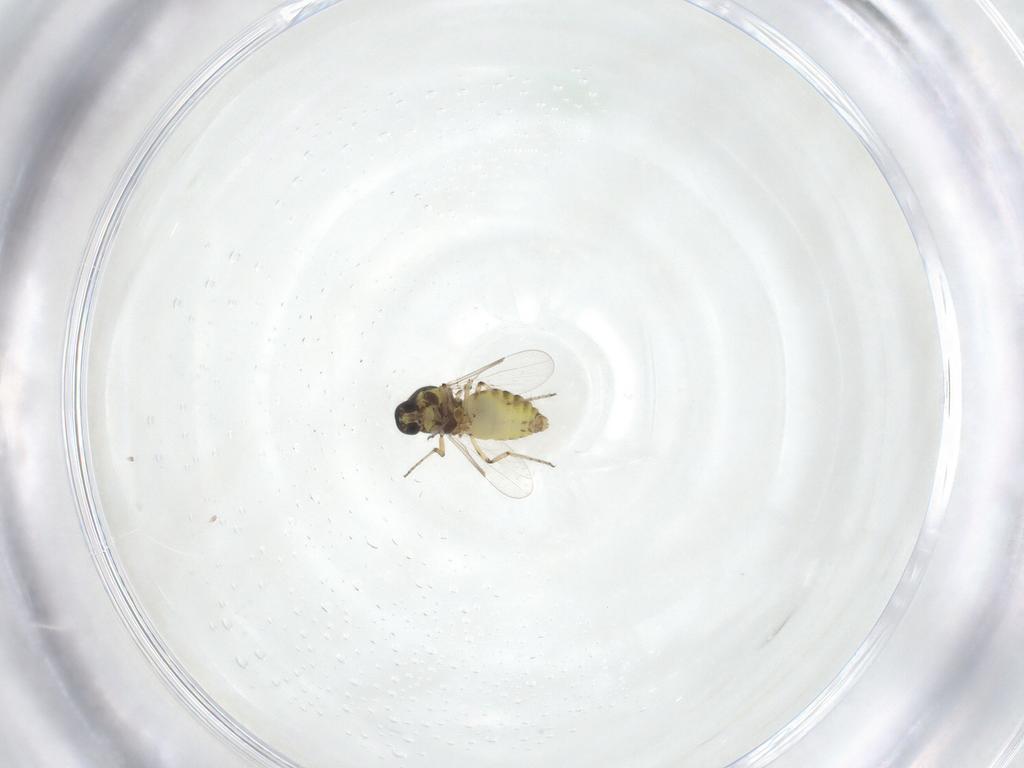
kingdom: Animalia
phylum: Arthropoda
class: Insecta
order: Diptera
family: Ceratopogonidae
